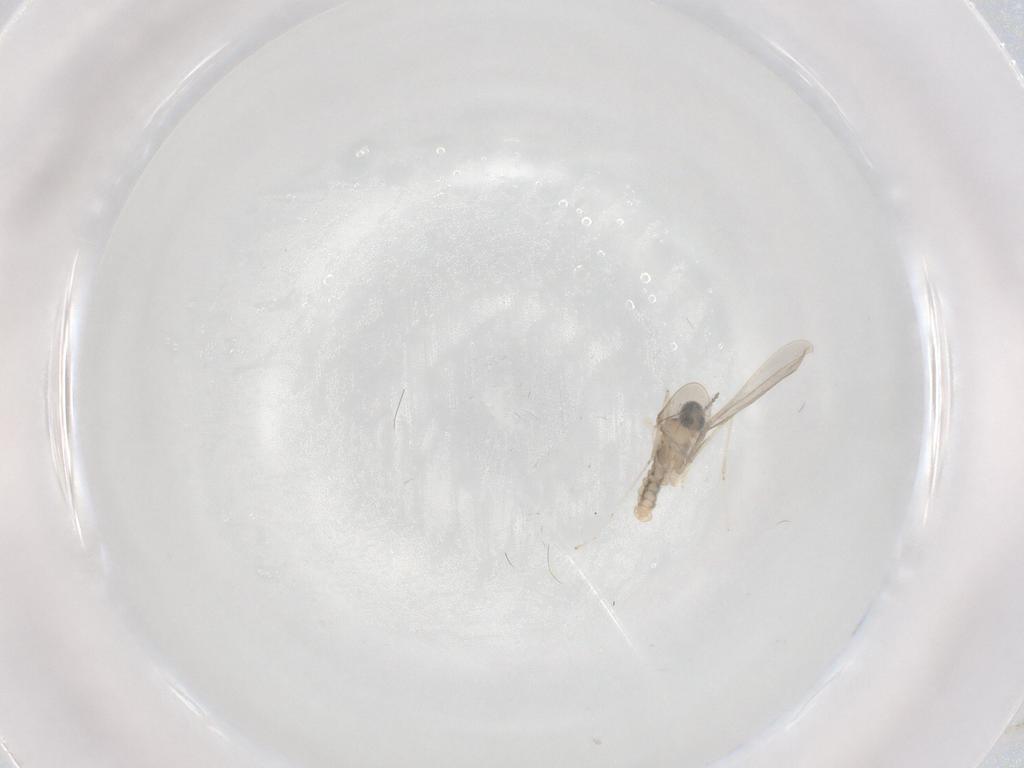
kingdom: Animalia
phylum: Arthropoda
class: Insecta
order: Diptera
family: Cecidomyiidae
